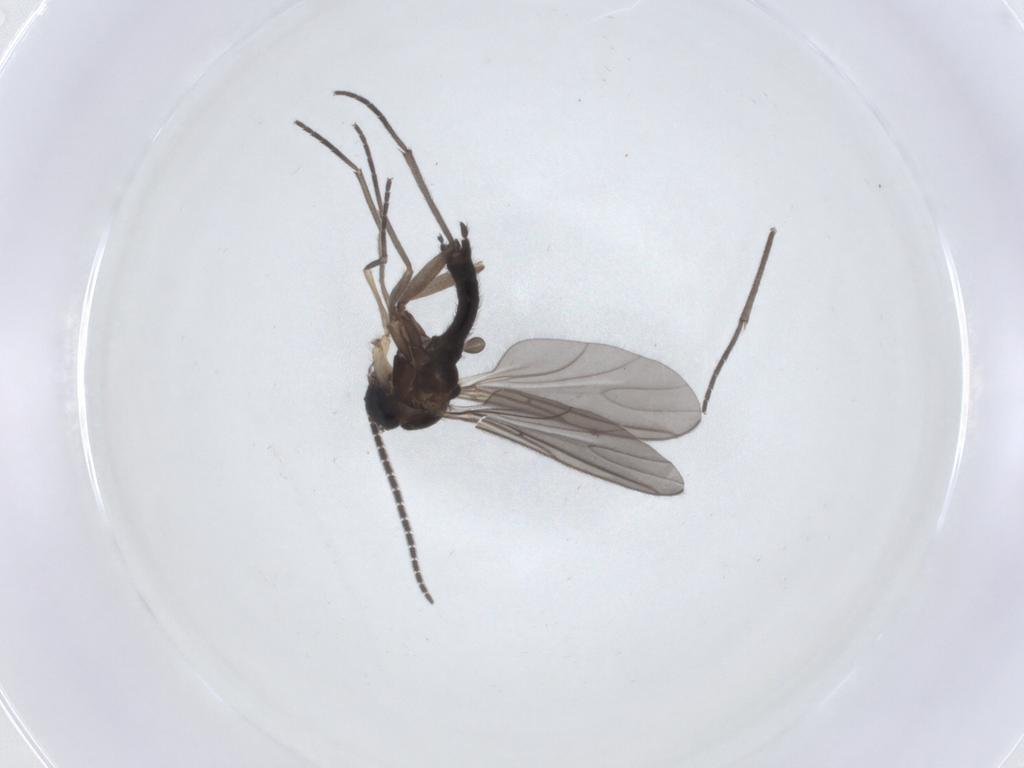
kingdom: Animalia
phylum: Arthropoda
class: Insecta
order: Diptera
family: Sciaridae
